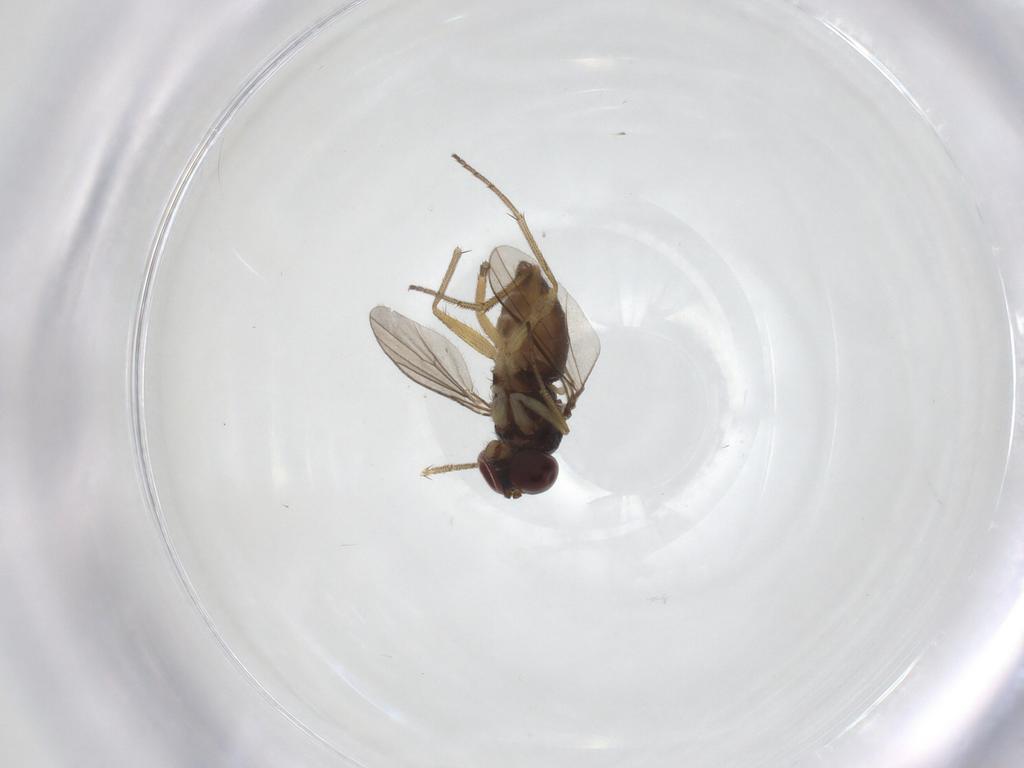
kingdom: Animalia
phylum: Arthropoda
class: Insecta
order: Diptera
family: Dolichopodidae
